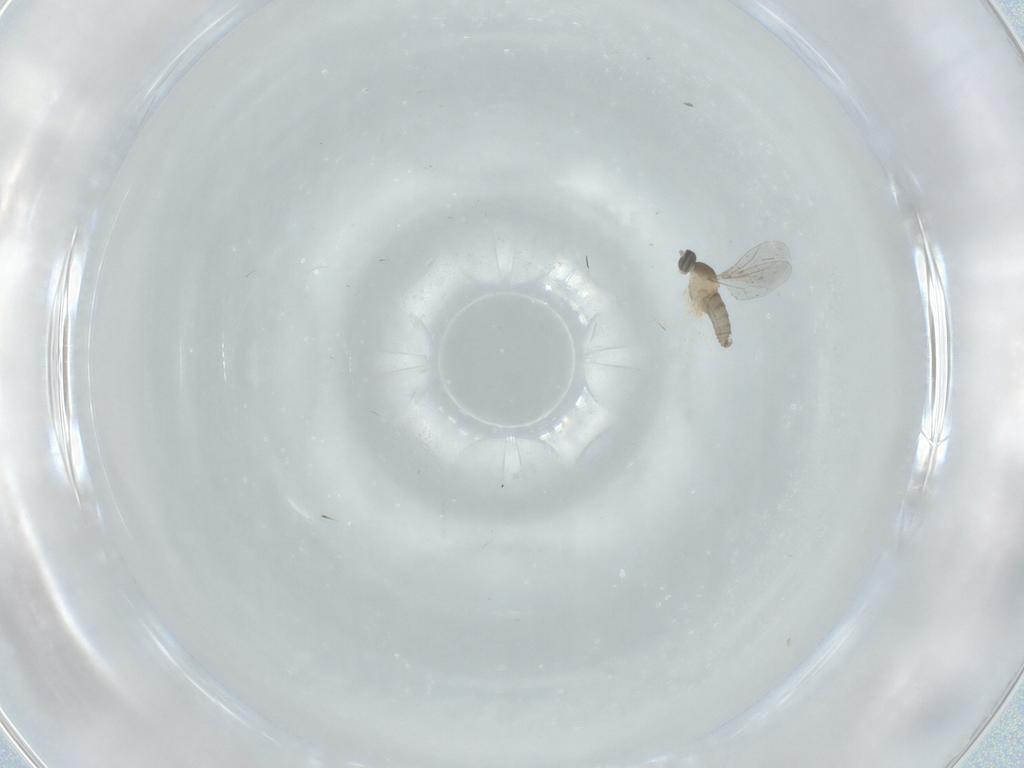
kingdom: Animalia
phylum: Arthropoda
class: Insecta
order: Diptera
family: Cecidomyiidae
